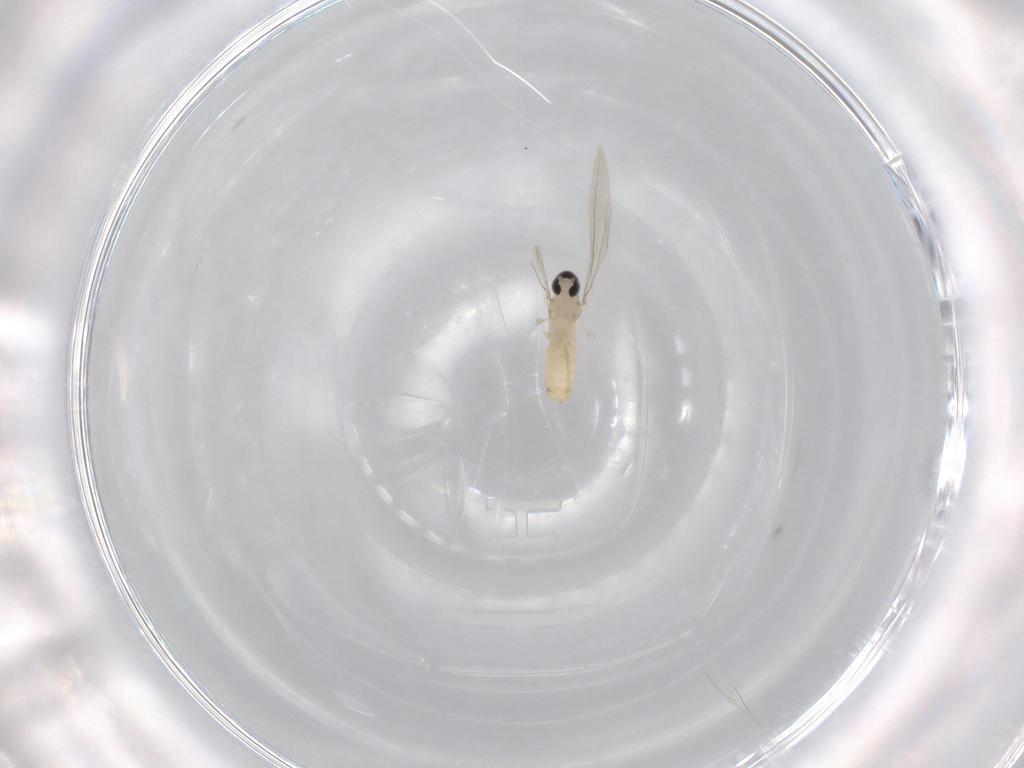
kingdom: Animalia
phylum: Arthropoda
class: Insecta
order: Diptera
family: Cecidomyiidae
